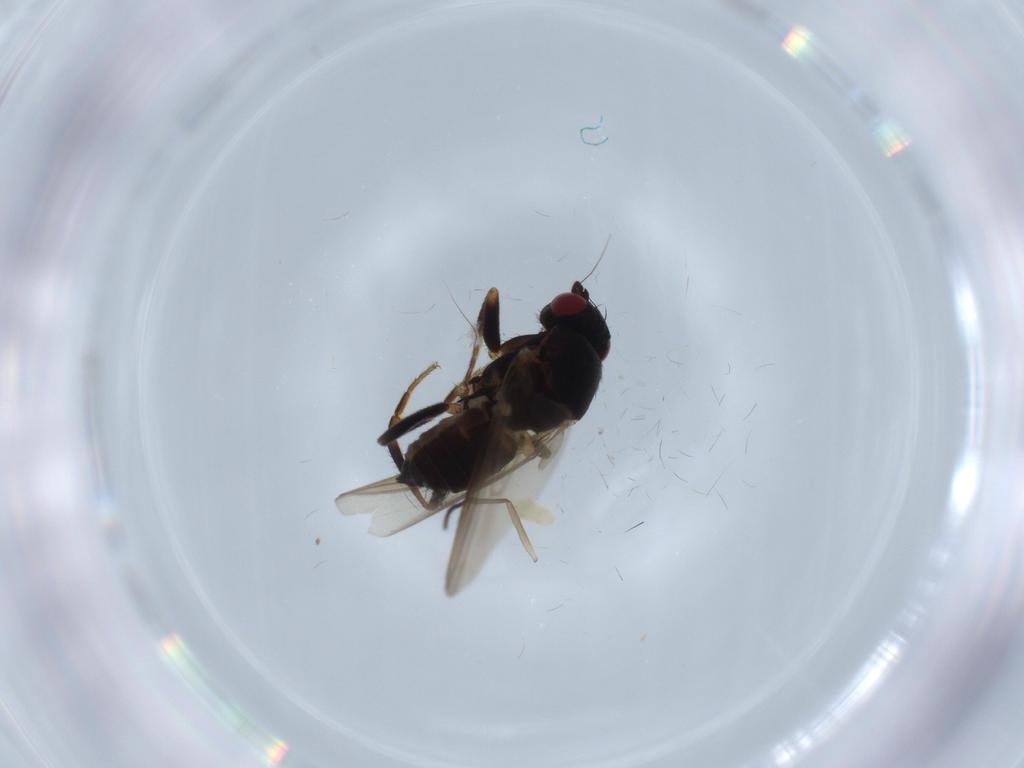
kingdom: Animalia
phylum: Arthropoda
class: Insecta
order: Diptera
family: Sphaeroceridae
